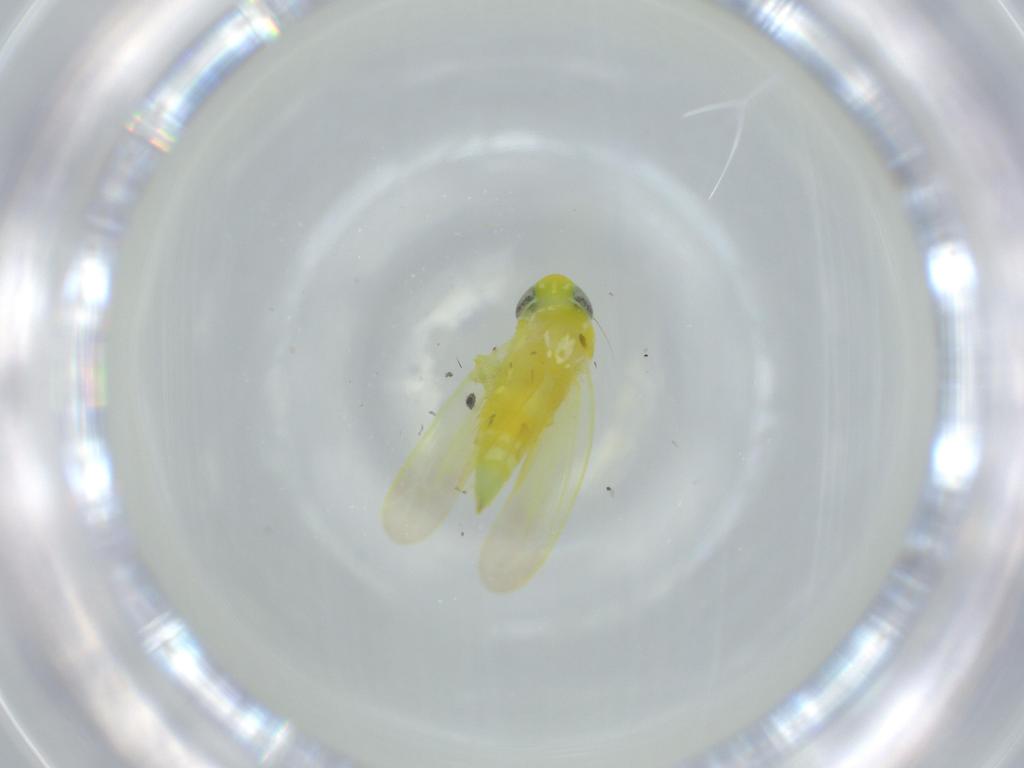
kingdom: Animalia
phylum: Arthropoda
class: Insecta
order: Hemiptera
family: Cicadellidae
